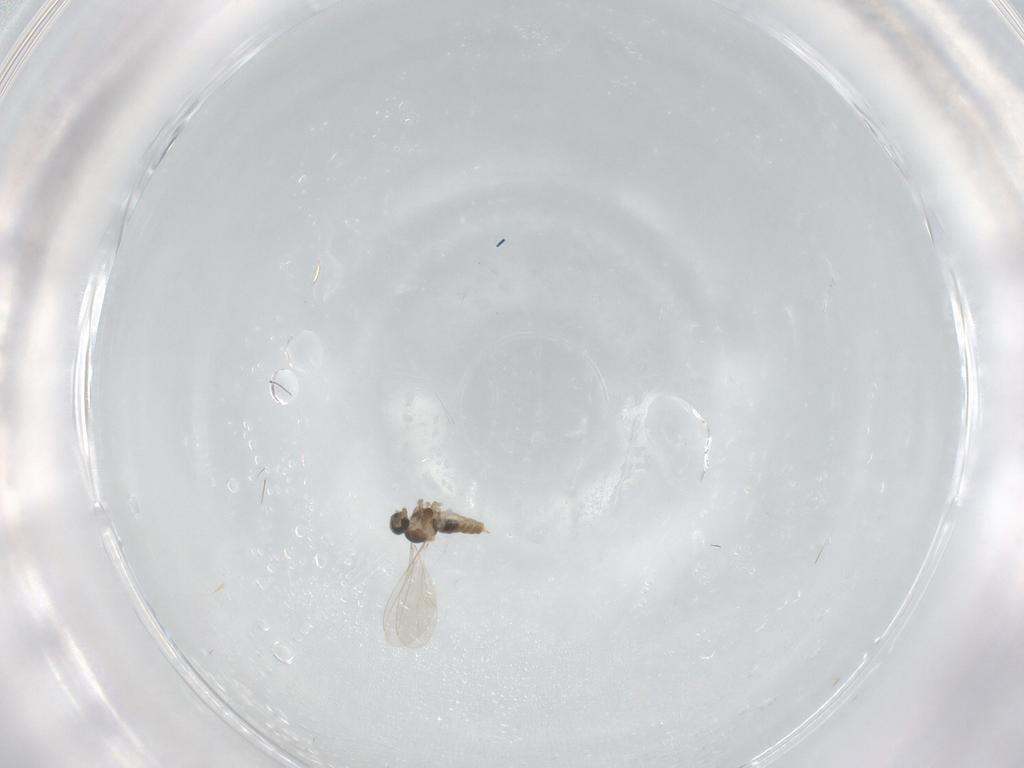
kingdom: Animalia
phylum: Arthropoda
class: Insecta
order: Diptera
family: Cecidomyiidae
